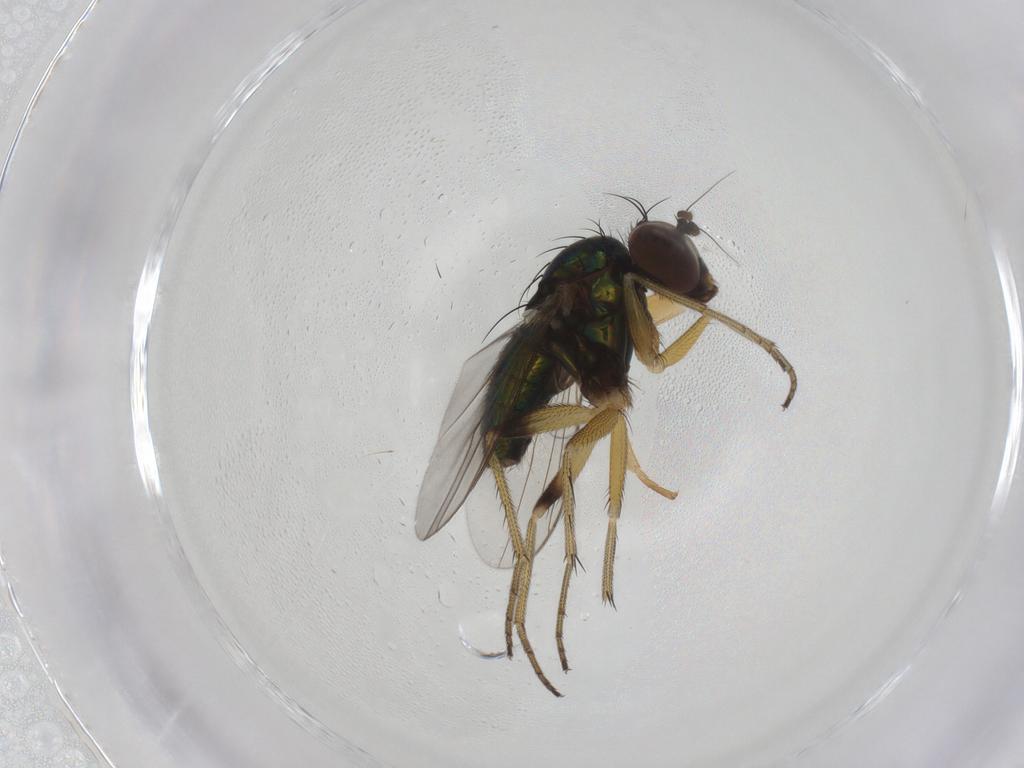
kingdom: Animalia
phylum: Arthropoda
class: Insecta
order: Diptera
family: Dolichopodidae
